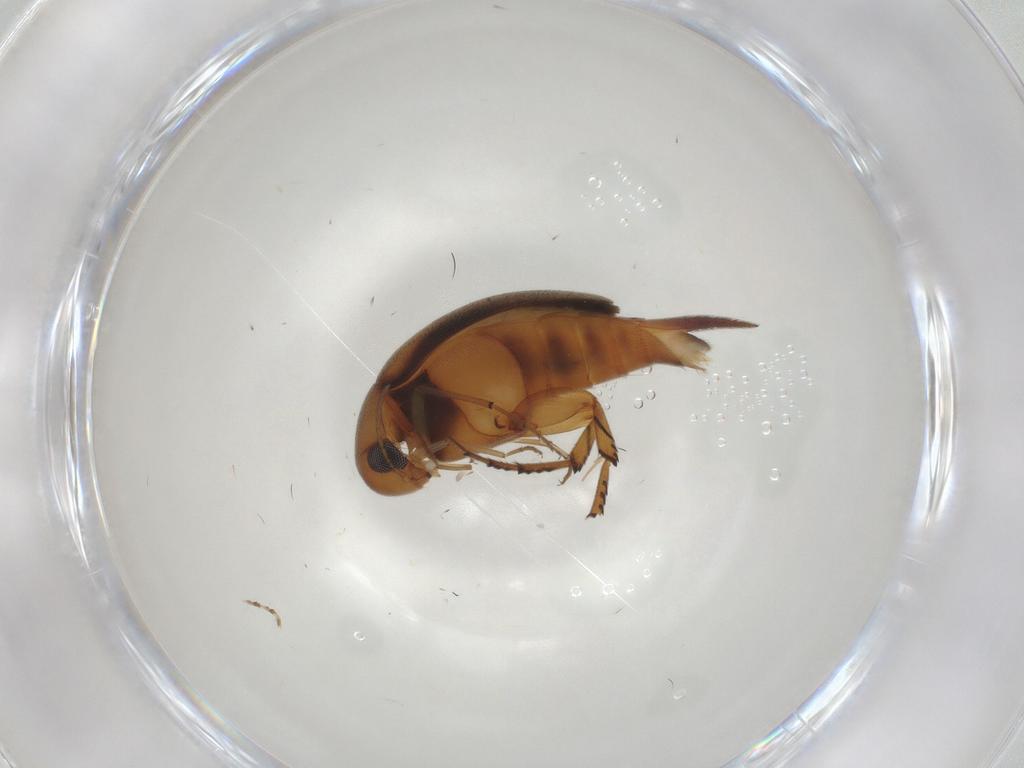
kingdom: Animalia
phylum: Arthropoda
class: Insecta
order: Coleoptera
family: Mordellidae
